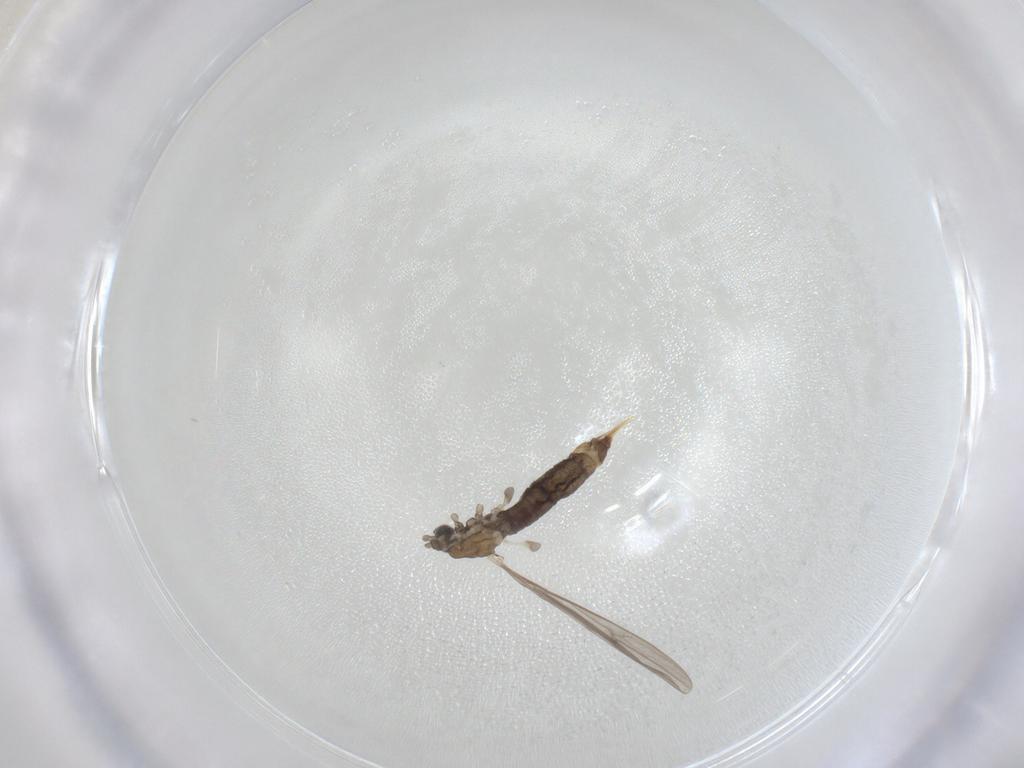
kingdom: Animalia
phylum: Arthropoda
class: Insecta
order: Diptera
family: Limoniidae
